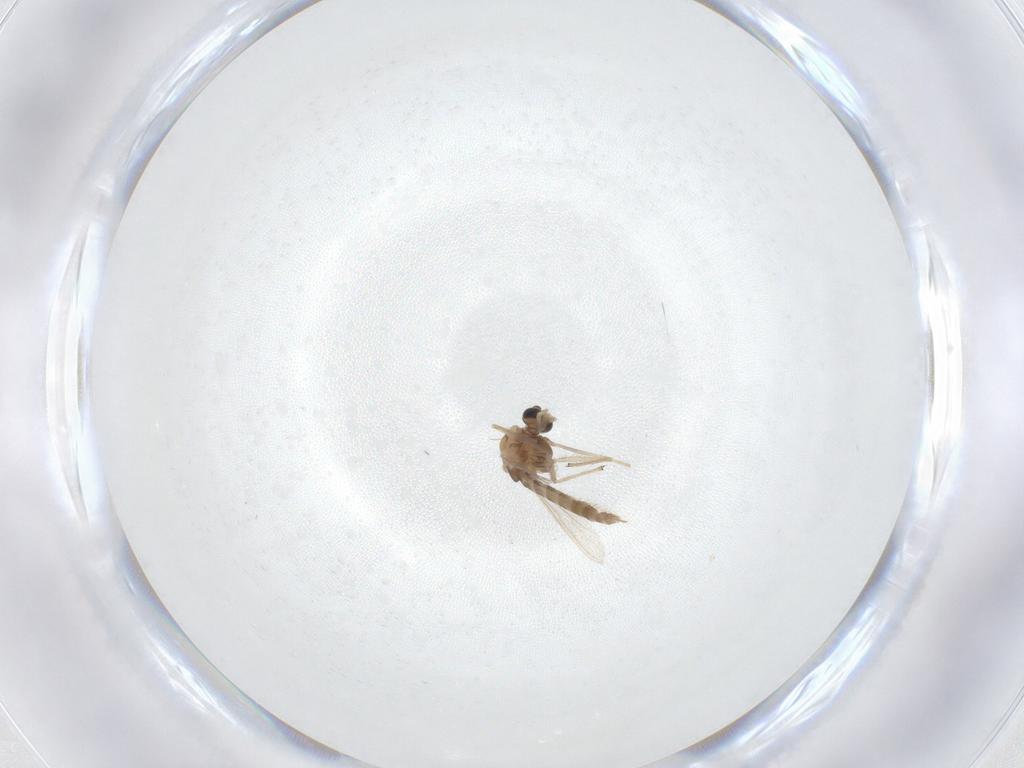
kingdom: Animalia
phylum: Arthropoda
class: Insecta
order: Diptera
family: Chironomidae
